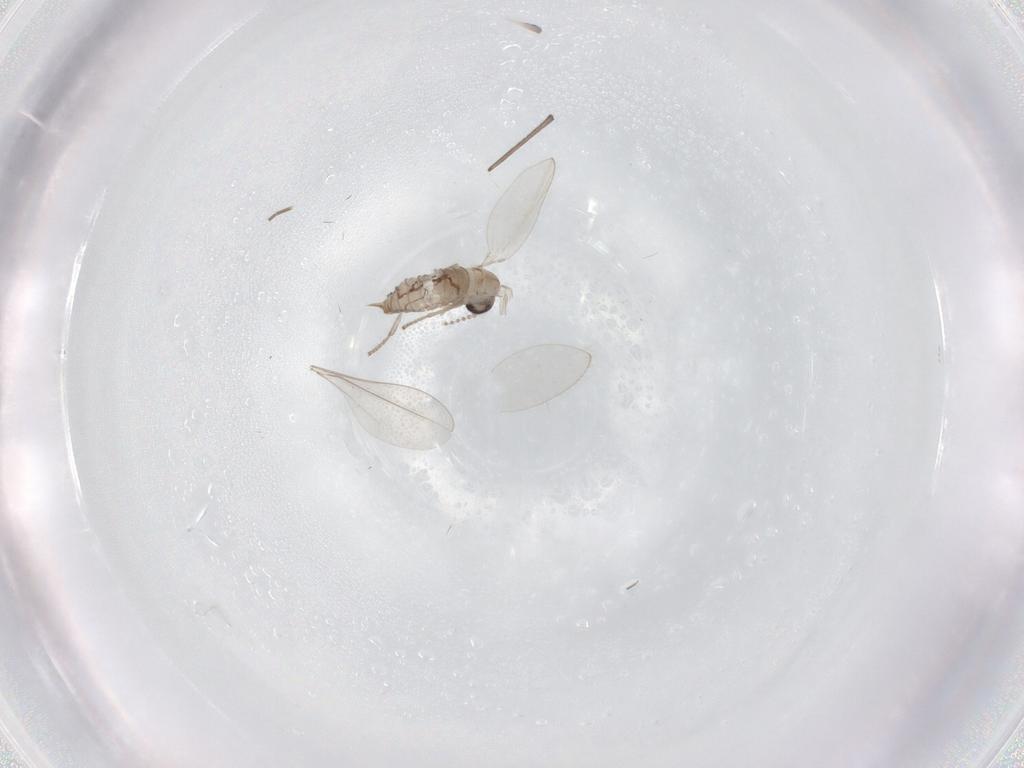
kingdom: Animalia
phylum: Arthropoda
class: Insecta
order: Diptera
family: Psychodidae
